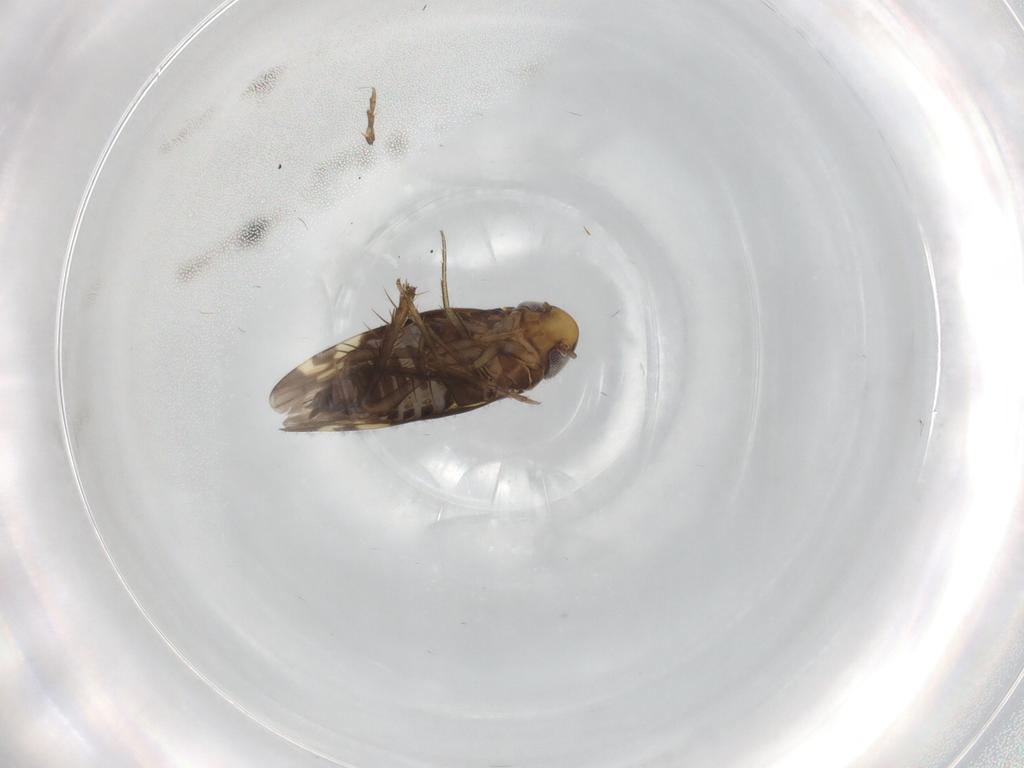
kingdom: Animalia
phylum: Arthropoda
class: Insecta
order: Hemiptera
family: Cicadellidae
